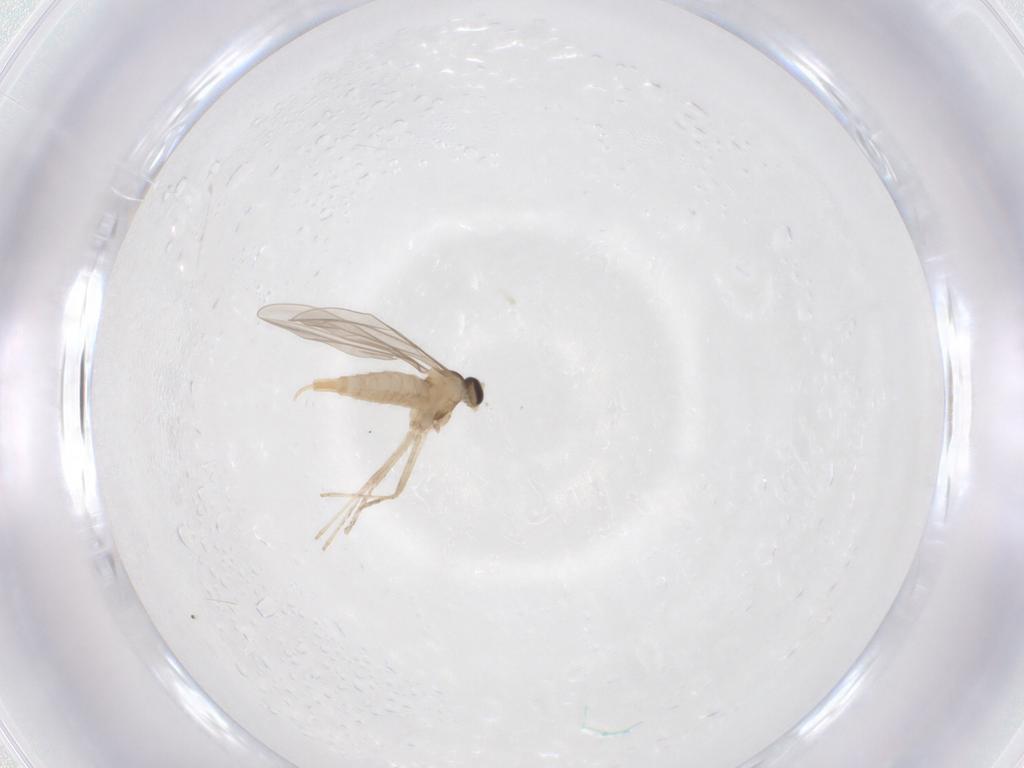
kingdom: Animalia
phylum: Arthropoda
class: Insecta
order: Diptera
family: Cecidomyiidae
